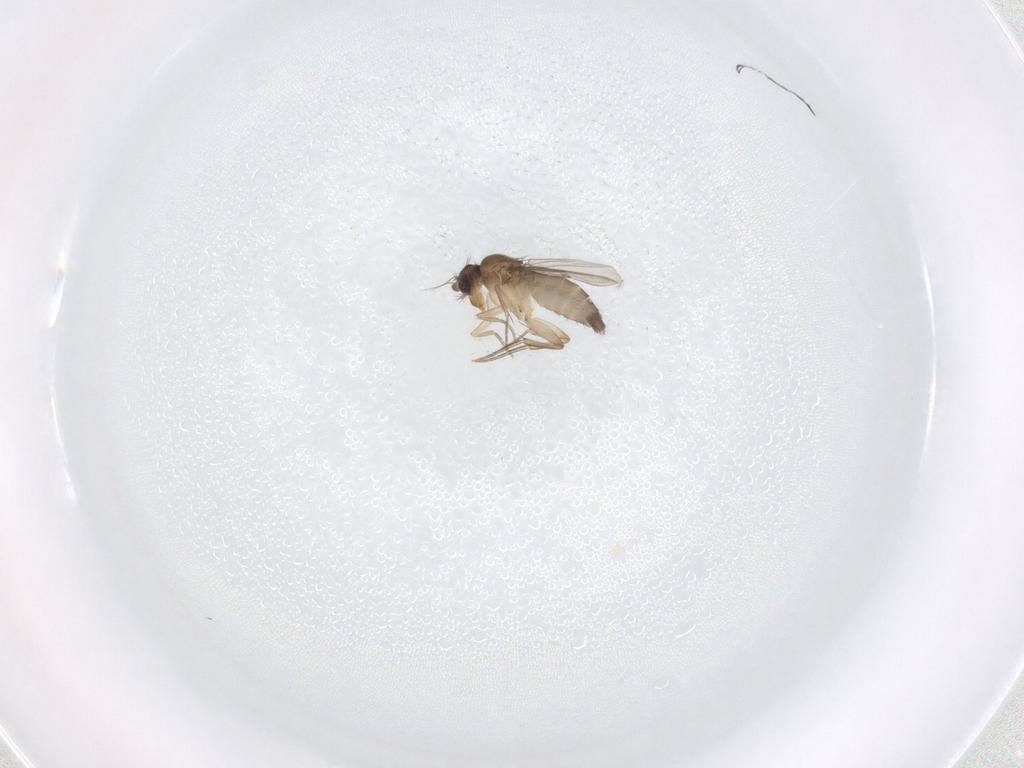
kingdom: Animalia
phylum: Arthropoda
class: Insecta
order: Diptera
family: Phoridae
